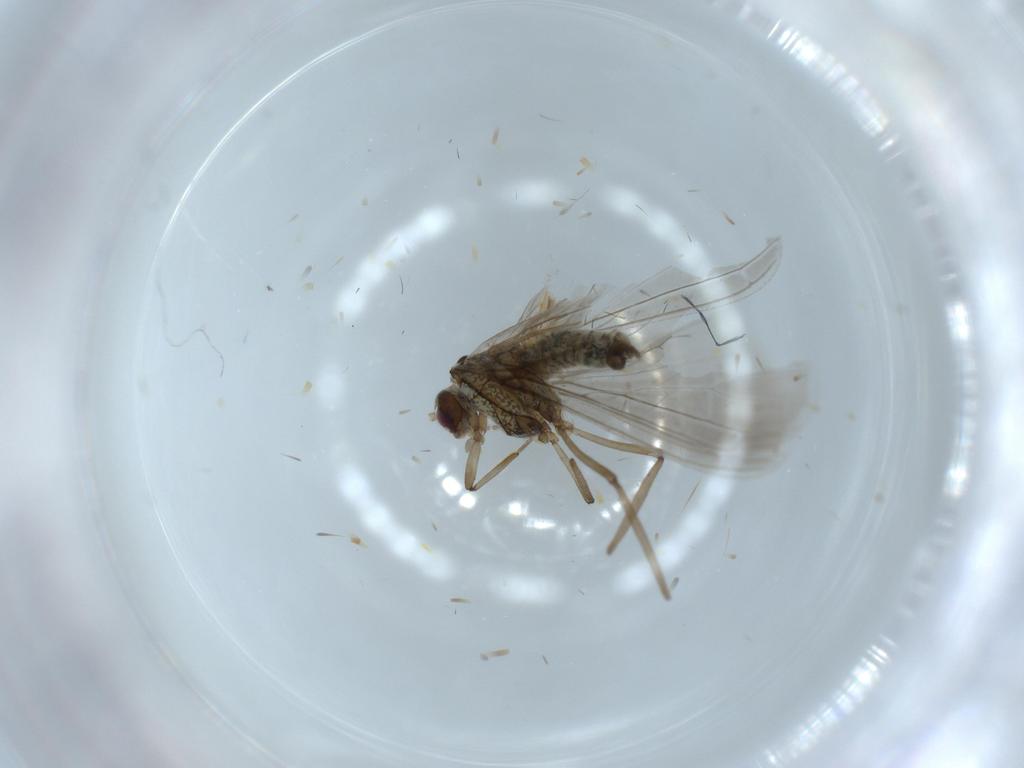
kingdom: Animalia
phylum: Arthropoda
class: Insecta
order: Neuroptera
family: Coniopterygidae
